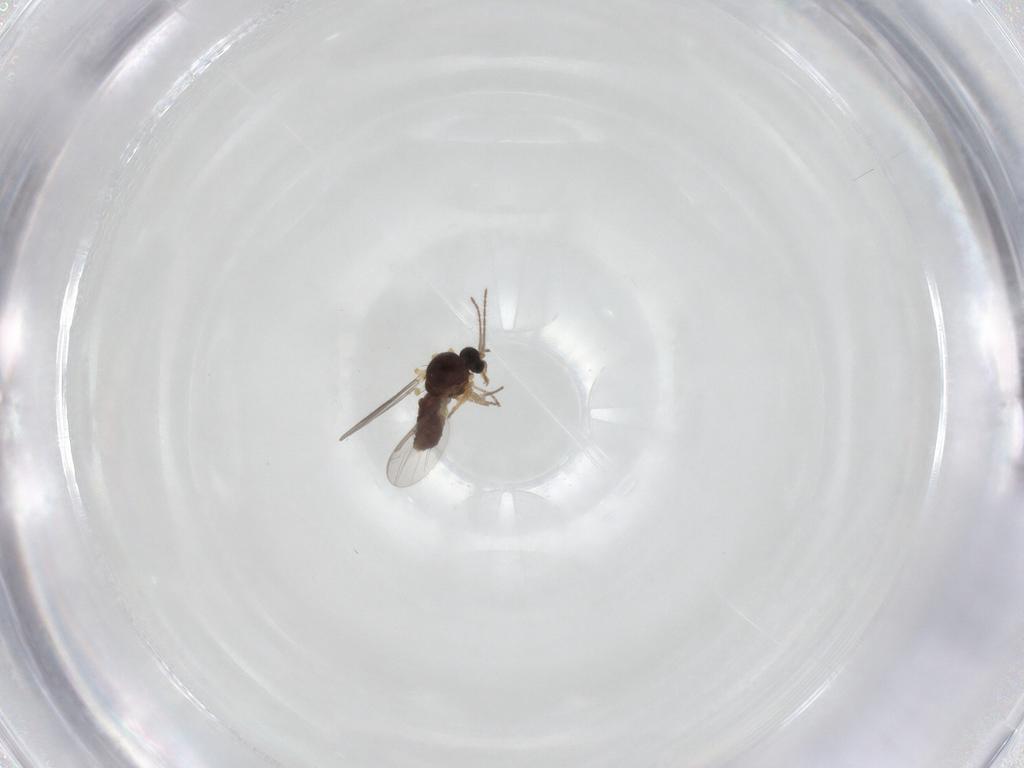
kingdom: Animalia
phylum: Arthropoda
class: Insecta
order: Diptera
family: Ceratopogonidae
